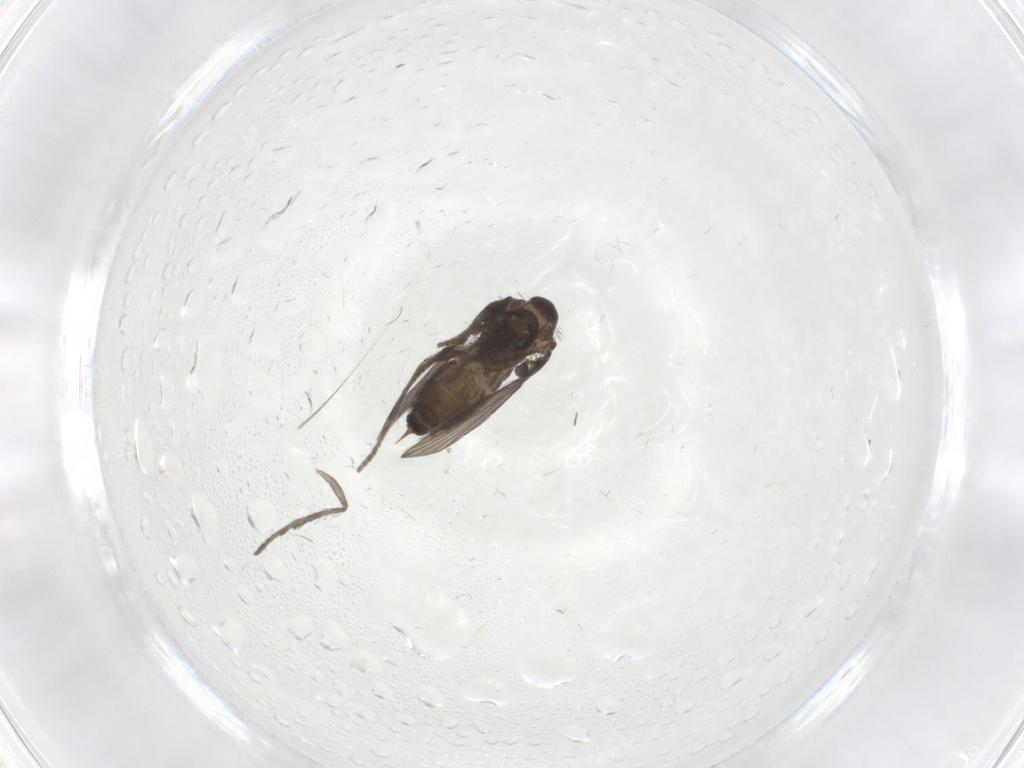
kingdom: Animalia
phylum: Arthropoda
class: Insecta
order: Diptera
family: Psychodidae
